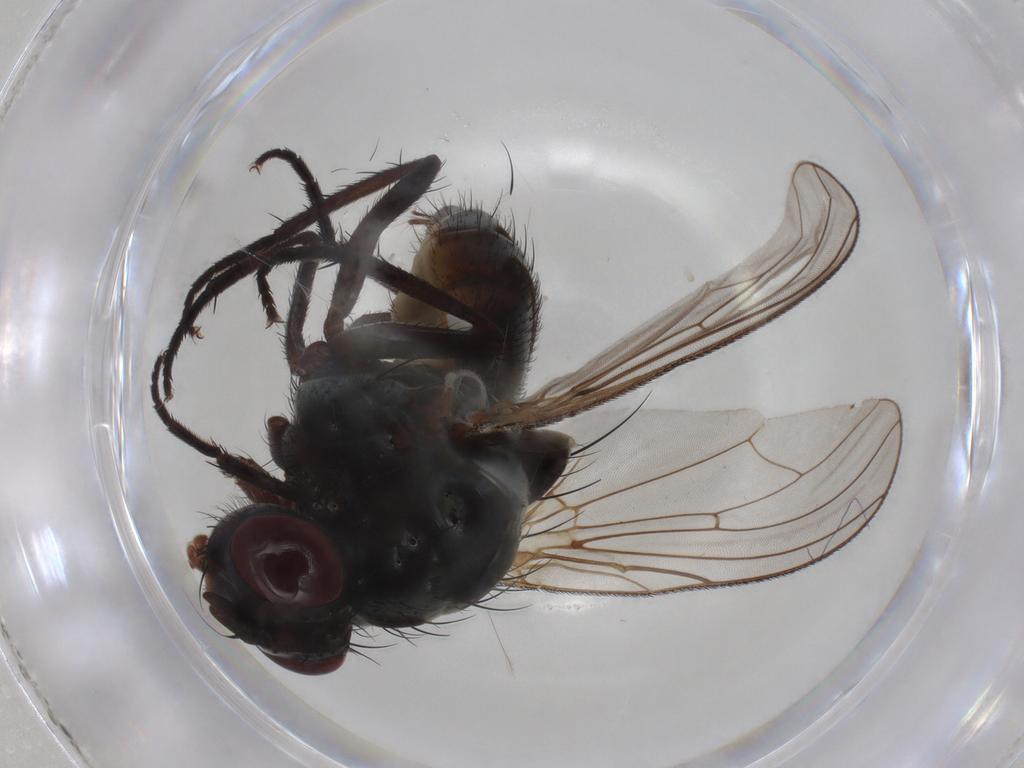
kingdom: Animalia
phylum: Arthropoda
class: Insecta
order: Diptera
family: Chironomidae
